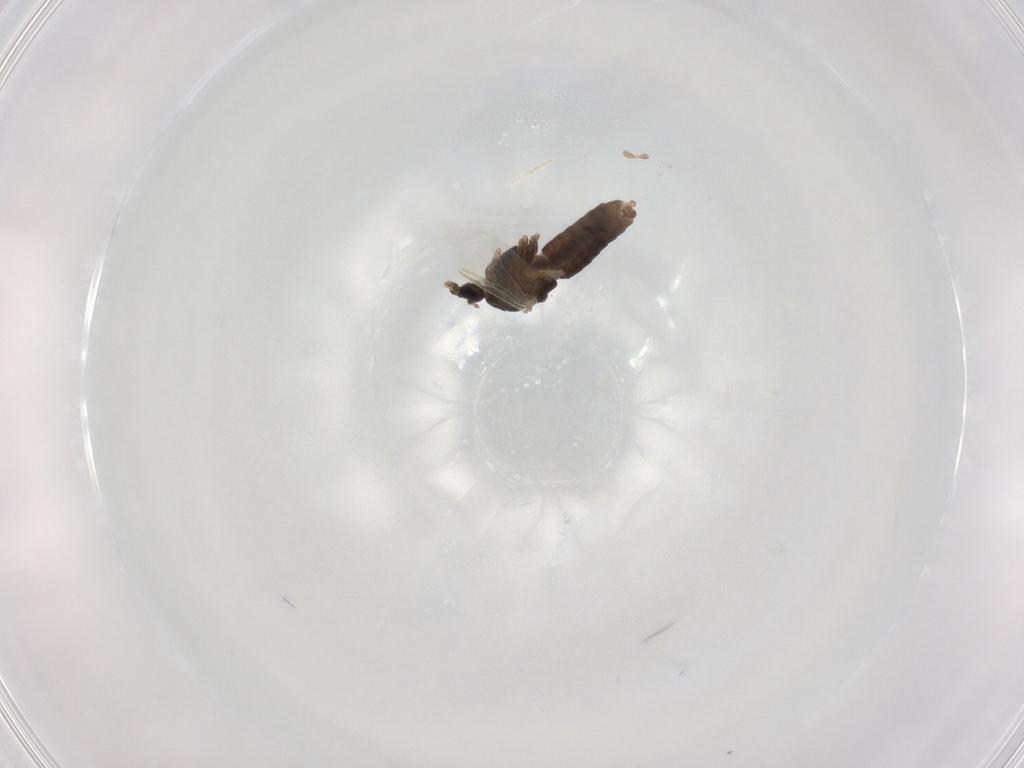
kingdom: Animalia
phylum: Arthropoda
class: Insecta
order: Diptera
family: Chironomidae
